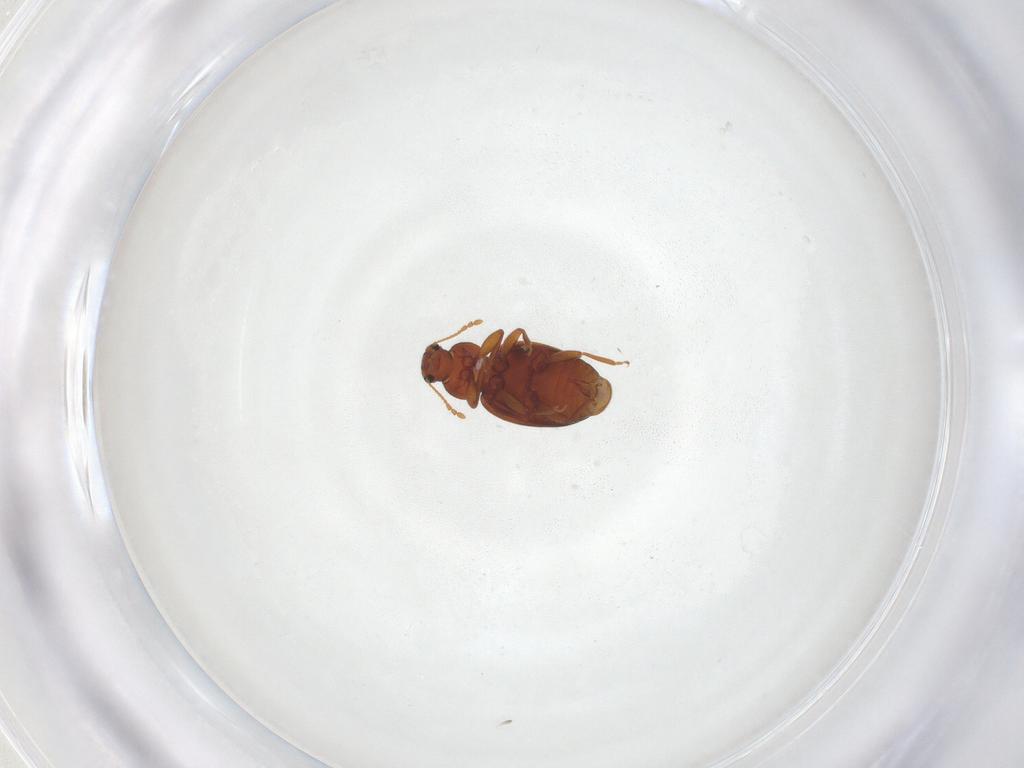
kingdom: Animalia
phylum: Arthropoda
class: Insecta
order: Coleoptera
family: Latridiidae
